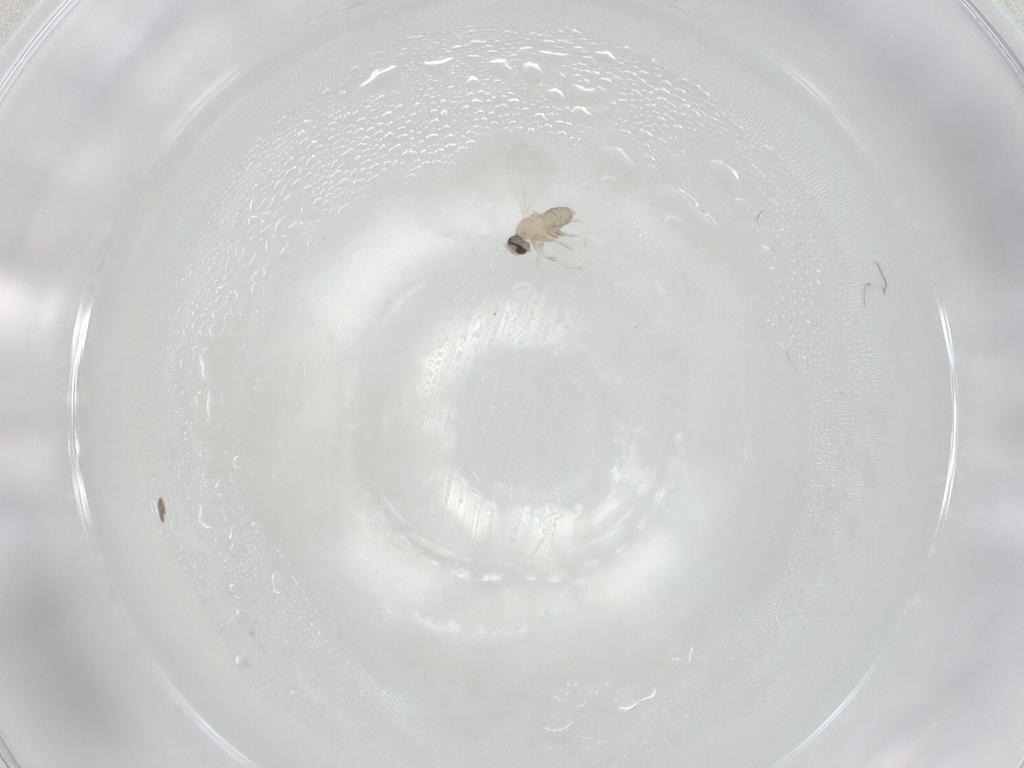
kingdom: Animalia
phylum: Arthropoda
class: Insecta
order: Diptera
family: Cecidomyiidae
